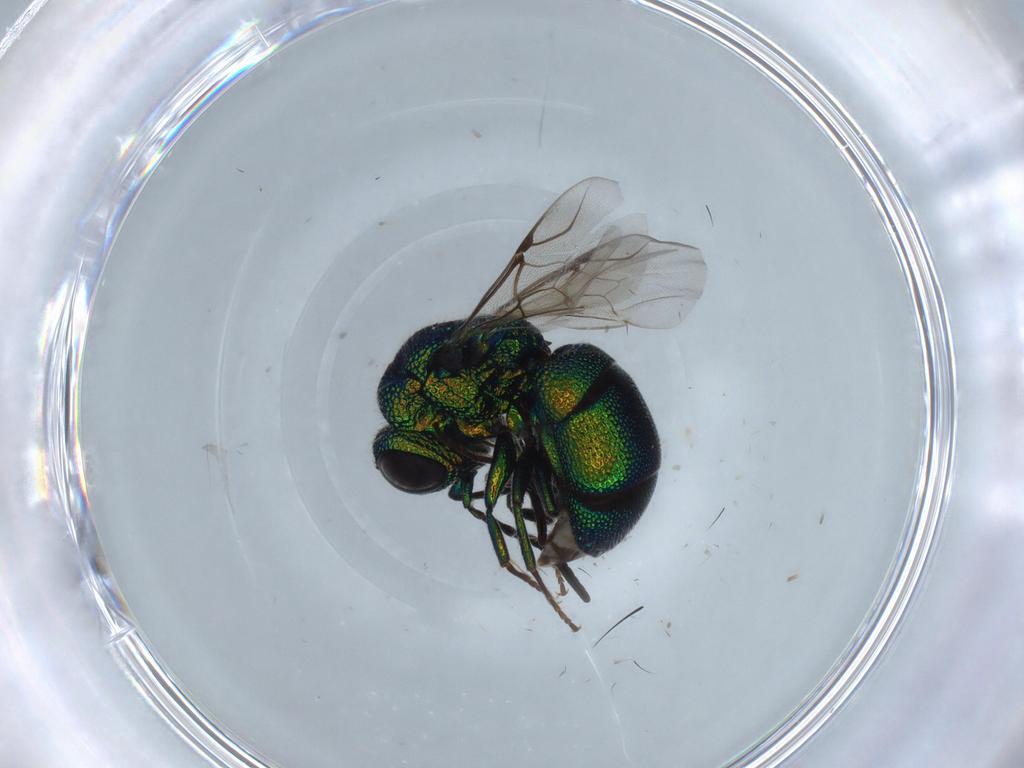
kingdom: Animalia
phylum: Arthropoda
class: Insecta
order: Hymenoptera
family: Chrysididae
